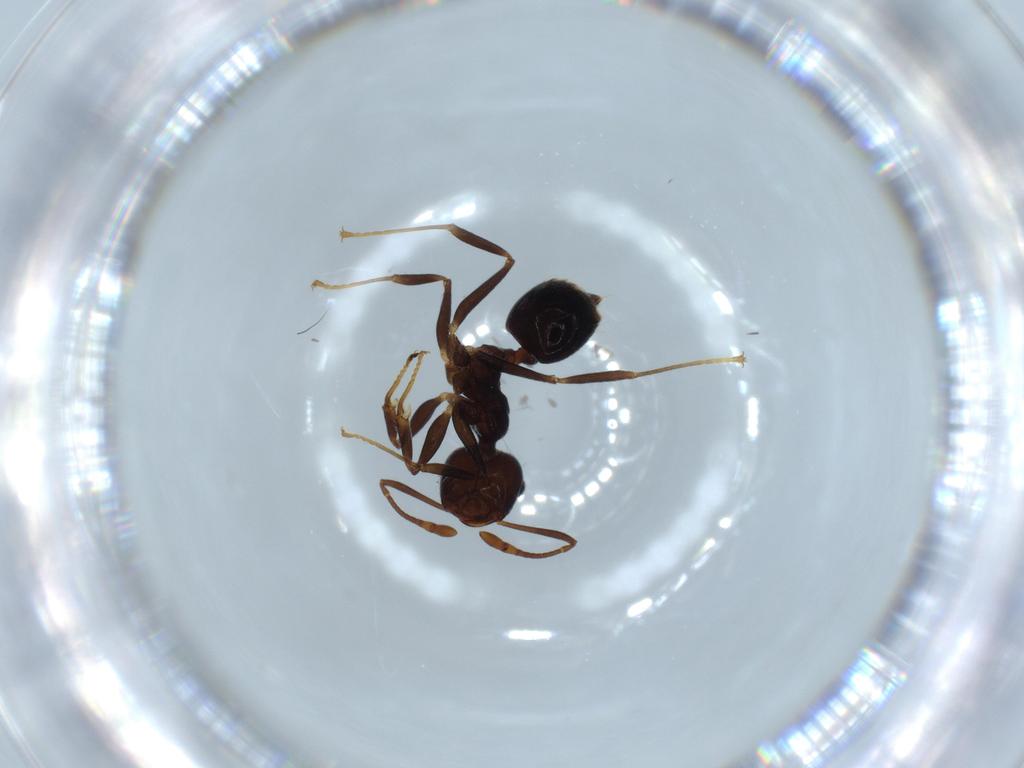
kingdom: Animalia
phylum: Arthropoda
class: Insecta
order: Hymenoptera
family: Formicidae
